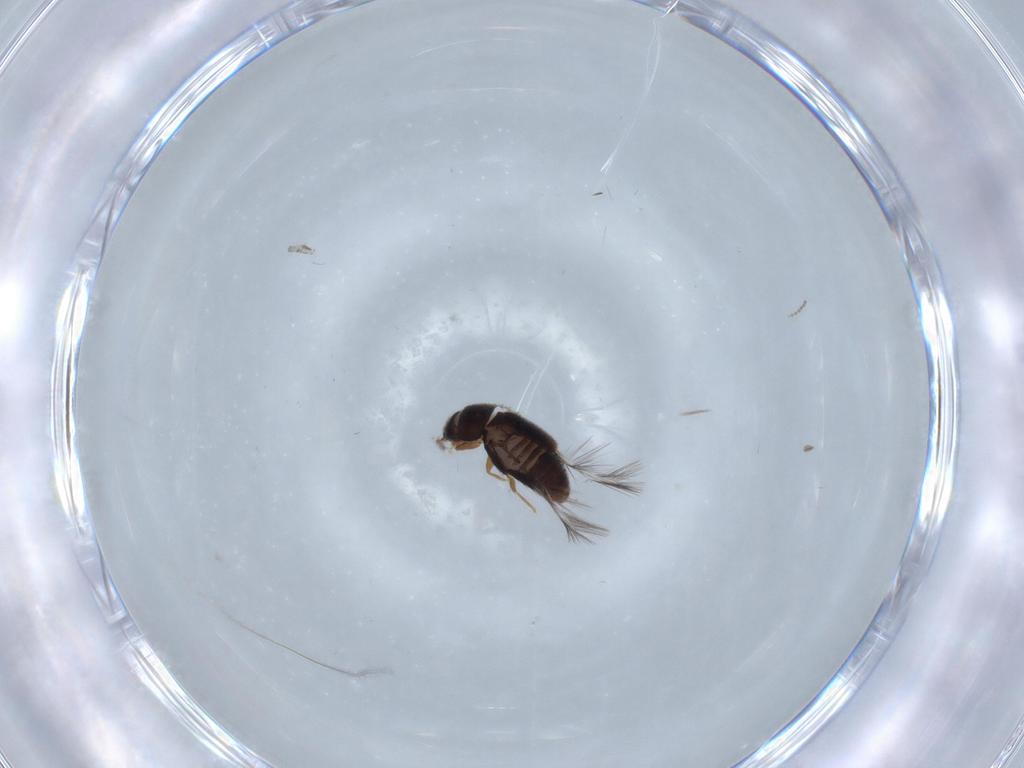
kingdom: Animalia
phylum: Arthropoda
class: Insecta
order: Coleoptera
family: Ptiliidae
